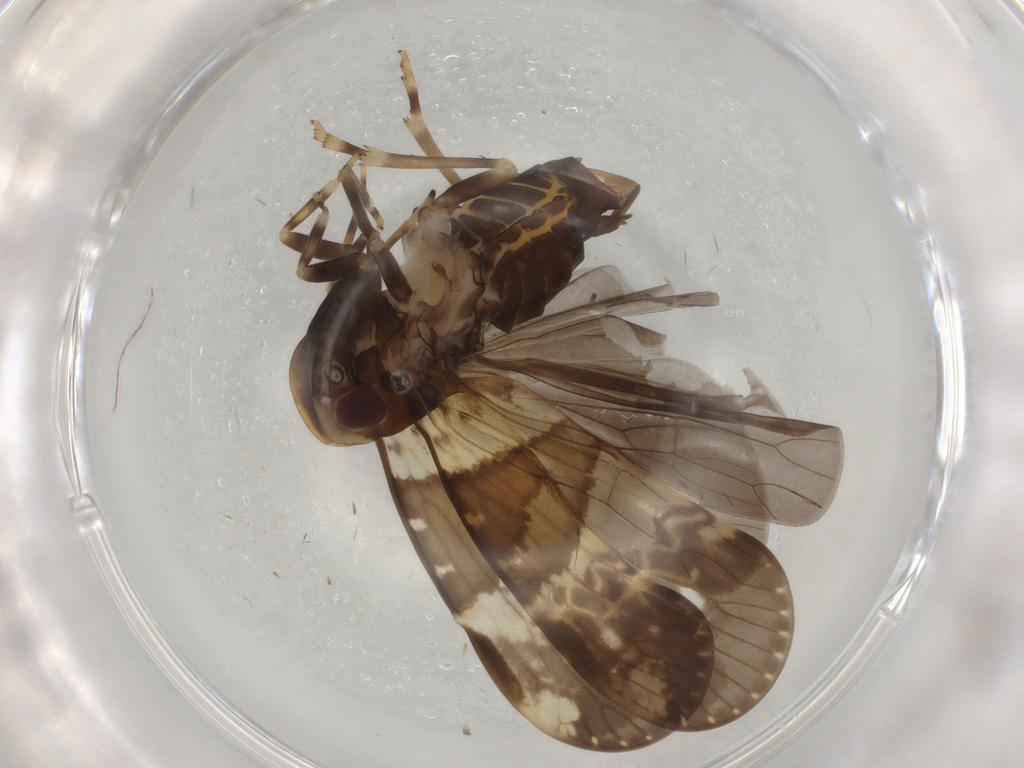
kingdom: Animalia
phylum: Arthropoda
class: Insecta
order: Hemiptera
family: Cixiidae
